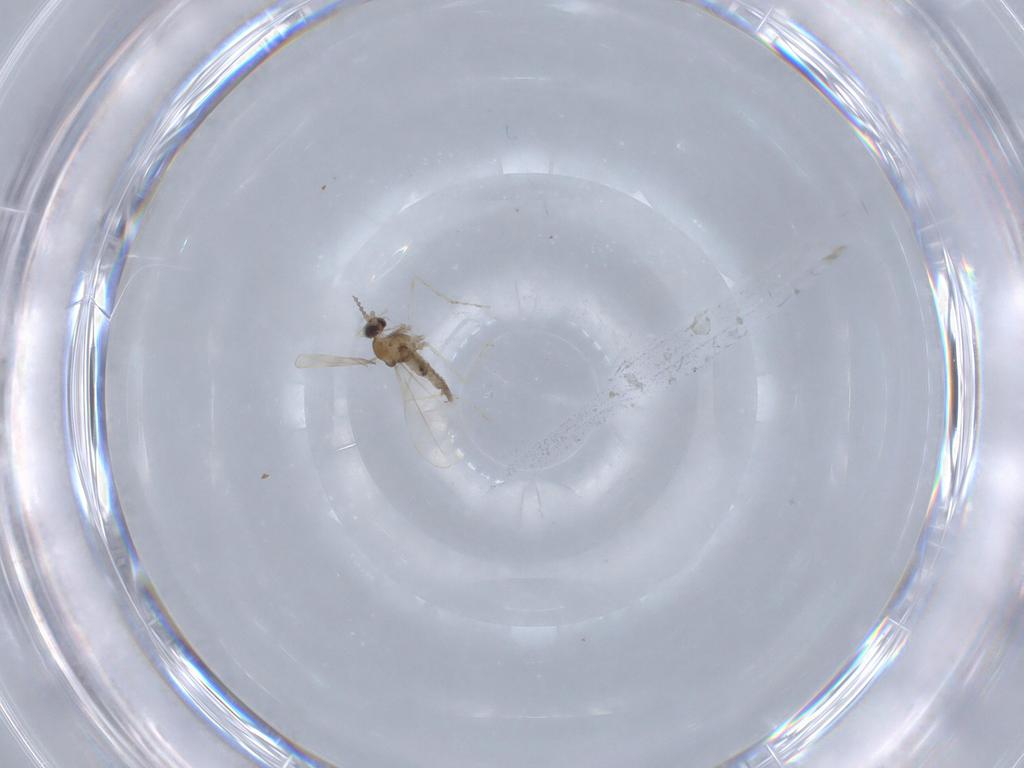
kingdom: Animalia
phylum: Arthropoda
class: Insecta
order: Diptera
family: Cecidomyiidae
